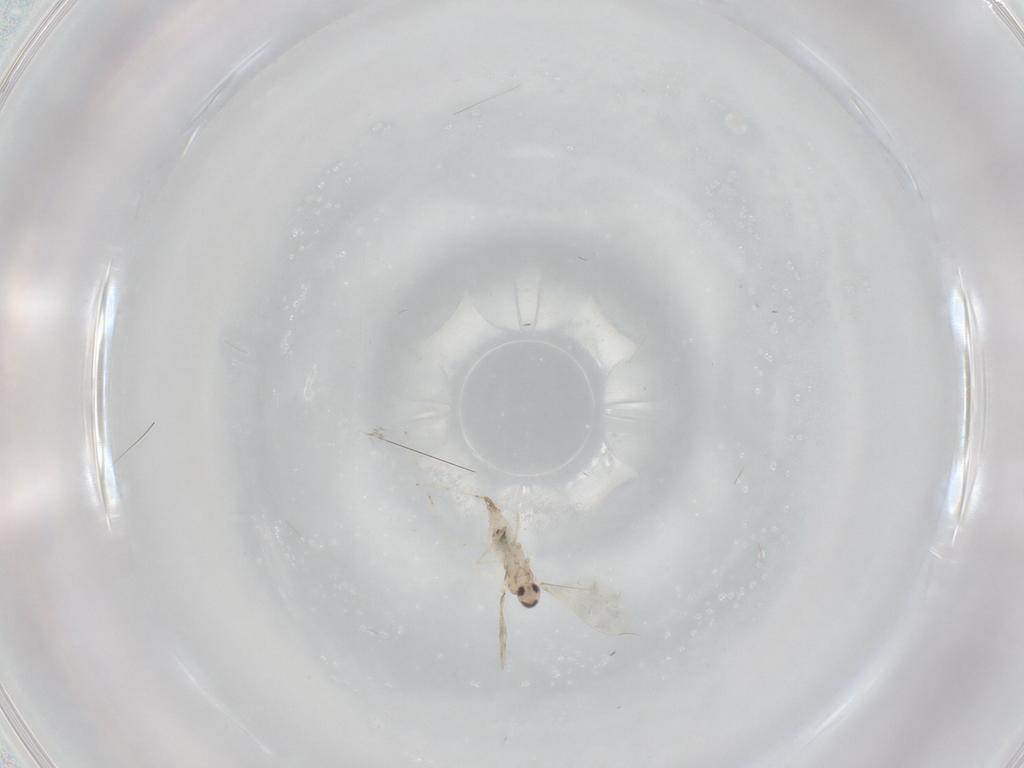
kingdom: Animalia
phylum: Arthropoda
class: Insecta
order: Diptera
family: Cecidomyiidae
